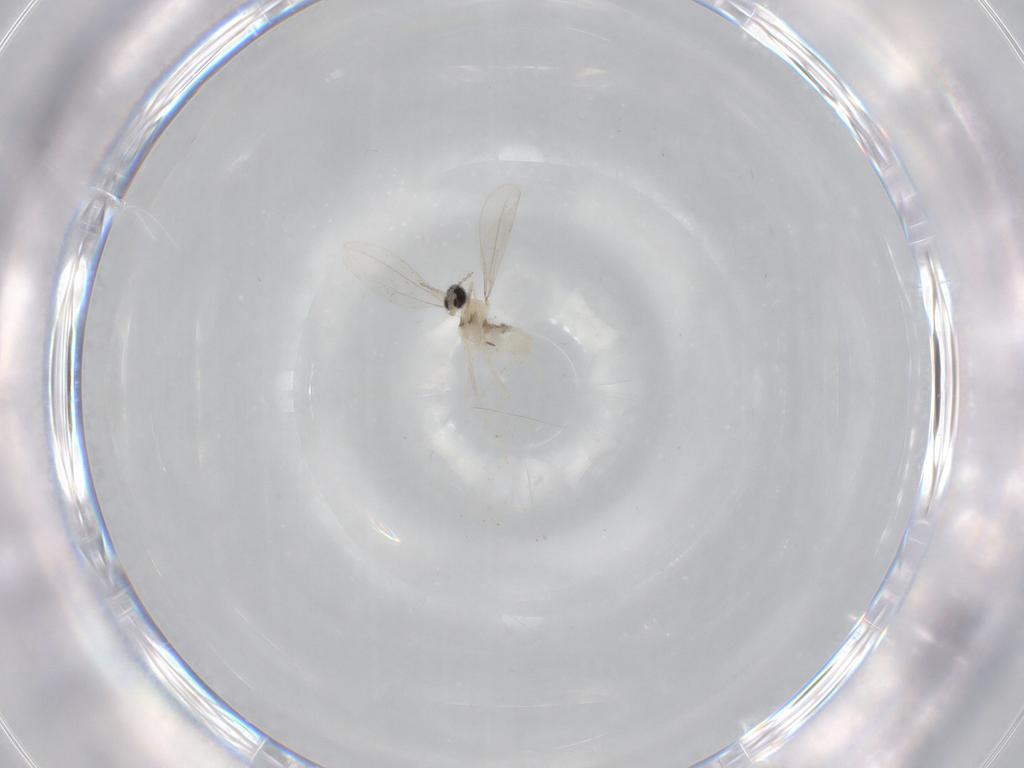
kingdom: Animalia
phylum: Arthropoda
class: Insecta
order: Diptera
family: Cecidomyiidae
